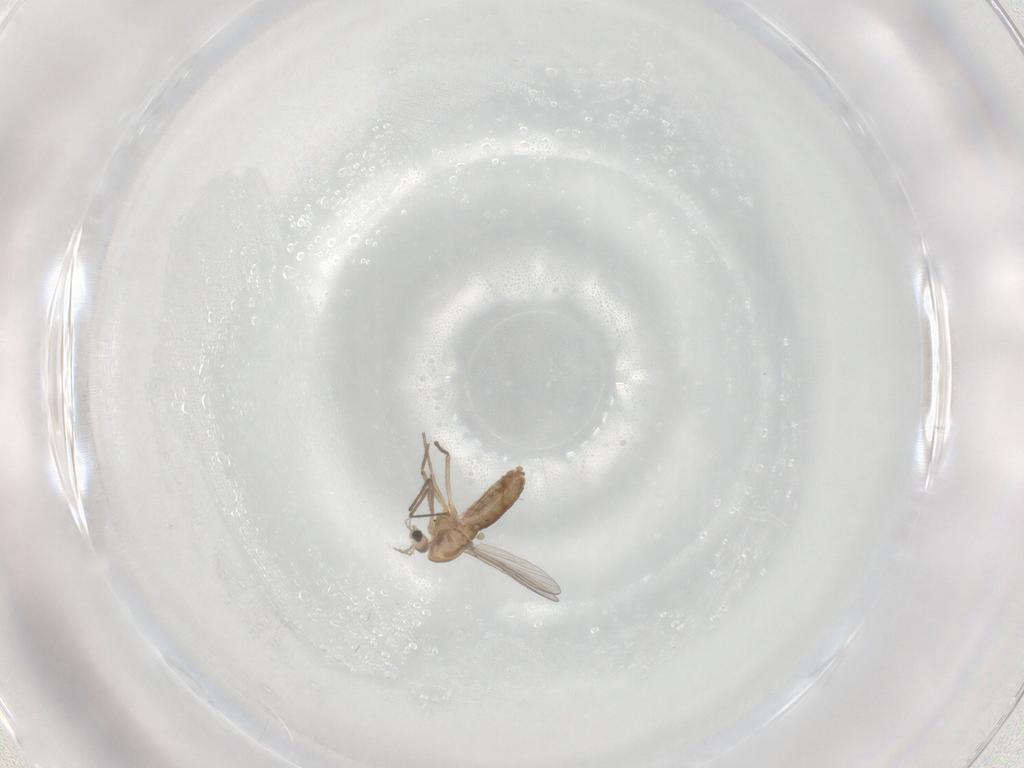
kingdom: Animalia
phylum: Arthropoda
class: Insecta
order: Diptera
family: Chironomidae
